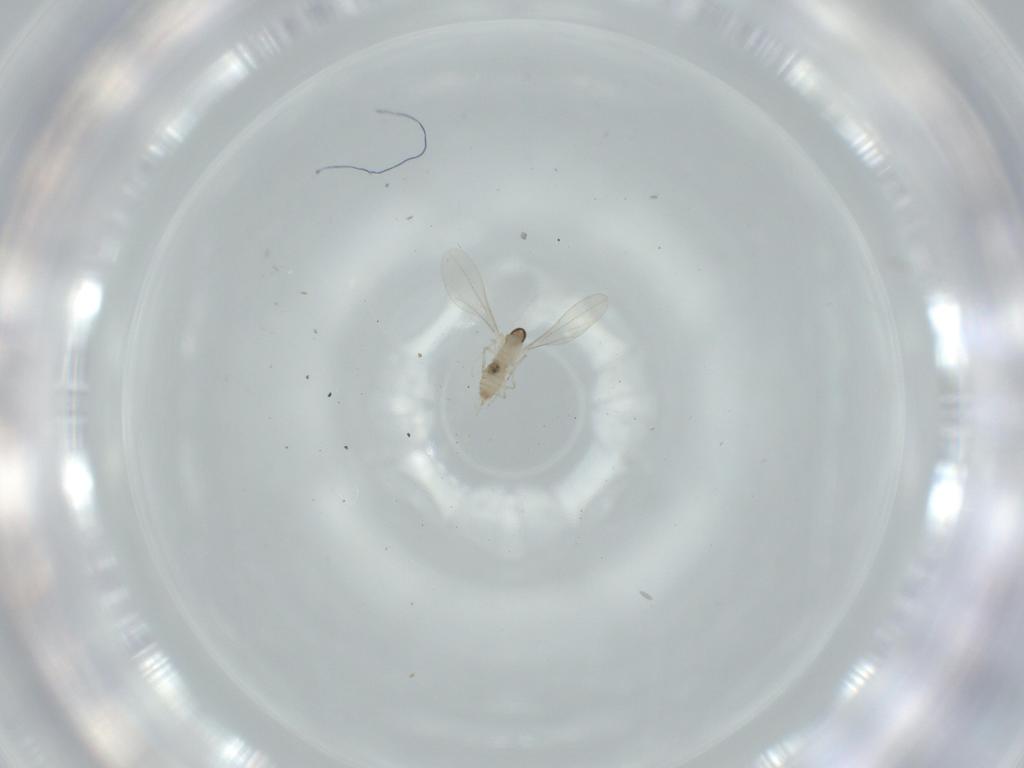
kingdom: Animalia
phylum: Arthropoda
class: Insecta
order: Diptera
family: Cecidomyiidae
